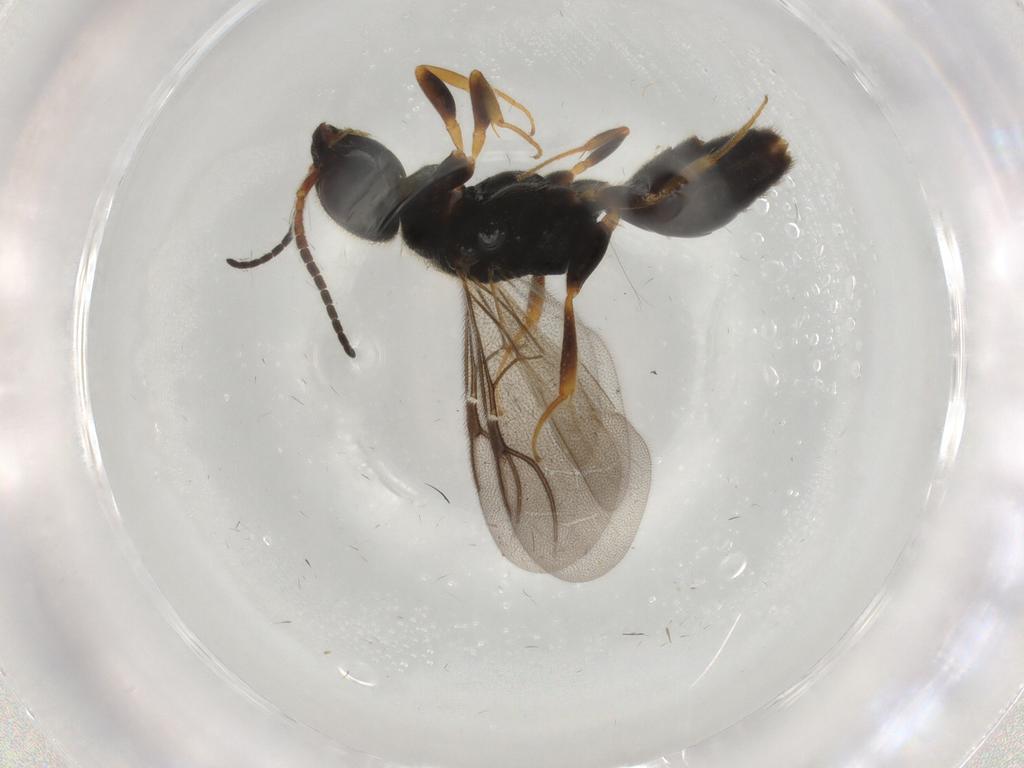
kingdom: Animalia
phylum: Arthropoda
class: Insecta
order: Hymenoptera
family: Bethylidae
